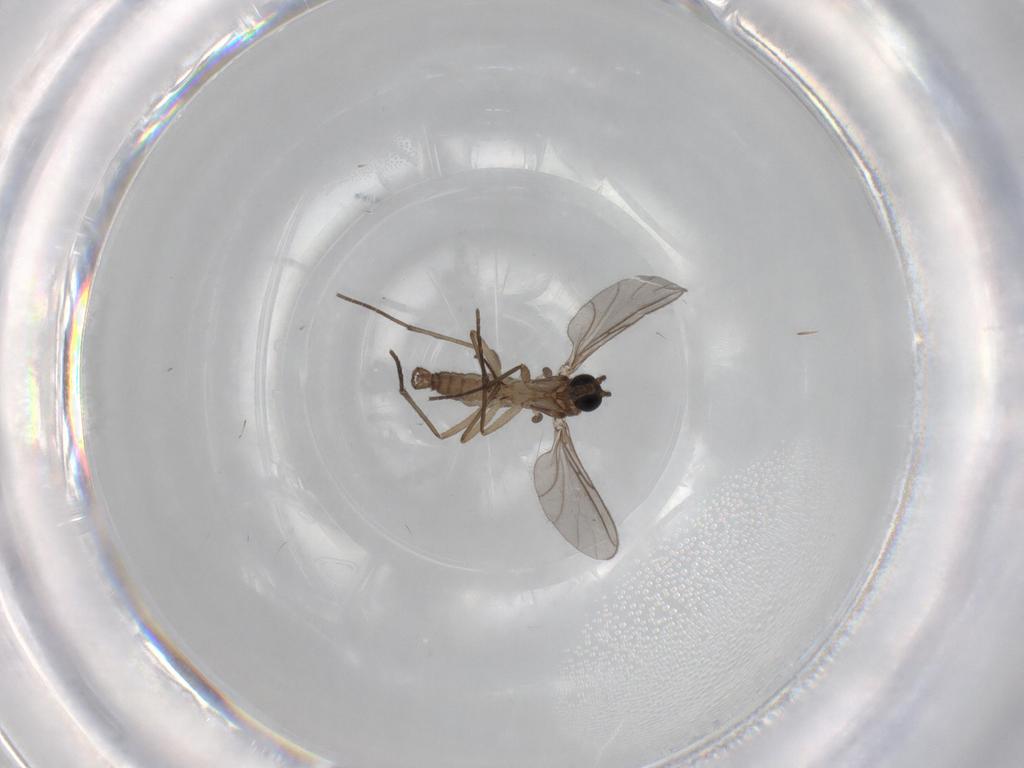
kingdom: Animalia
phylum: Arthropoda
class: Insecta
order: Diptera
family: Sciaridae
